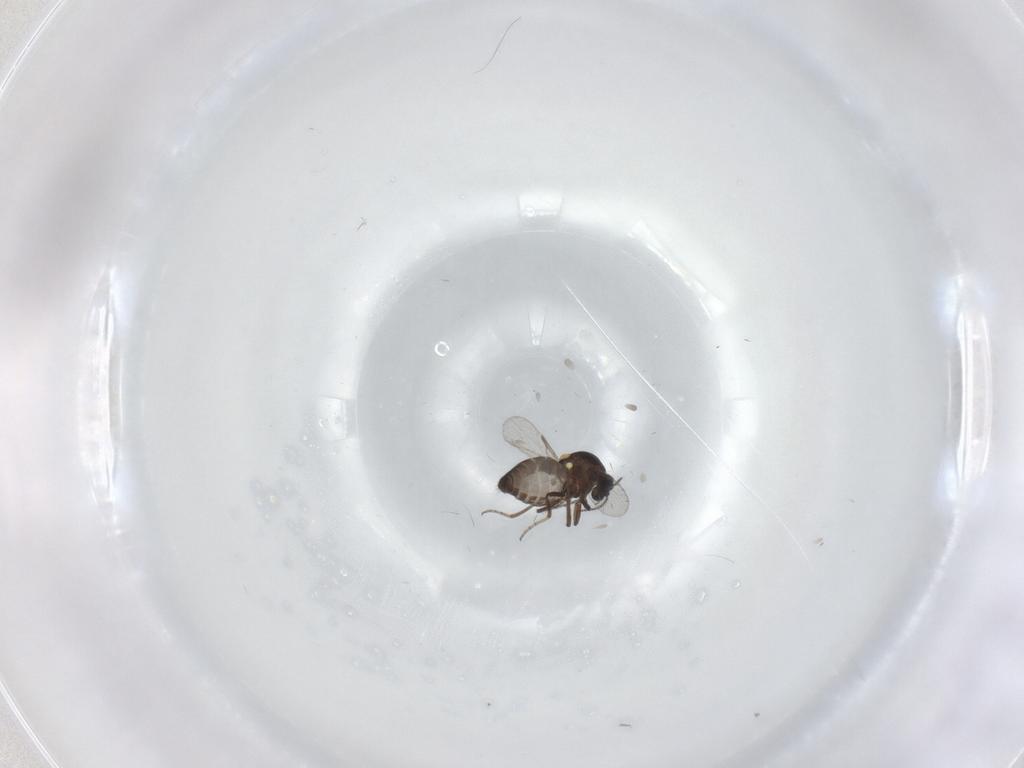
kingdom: Animalia
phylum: Arthropoda
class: Insecta
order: Diptera
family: Ceratopogonidae
